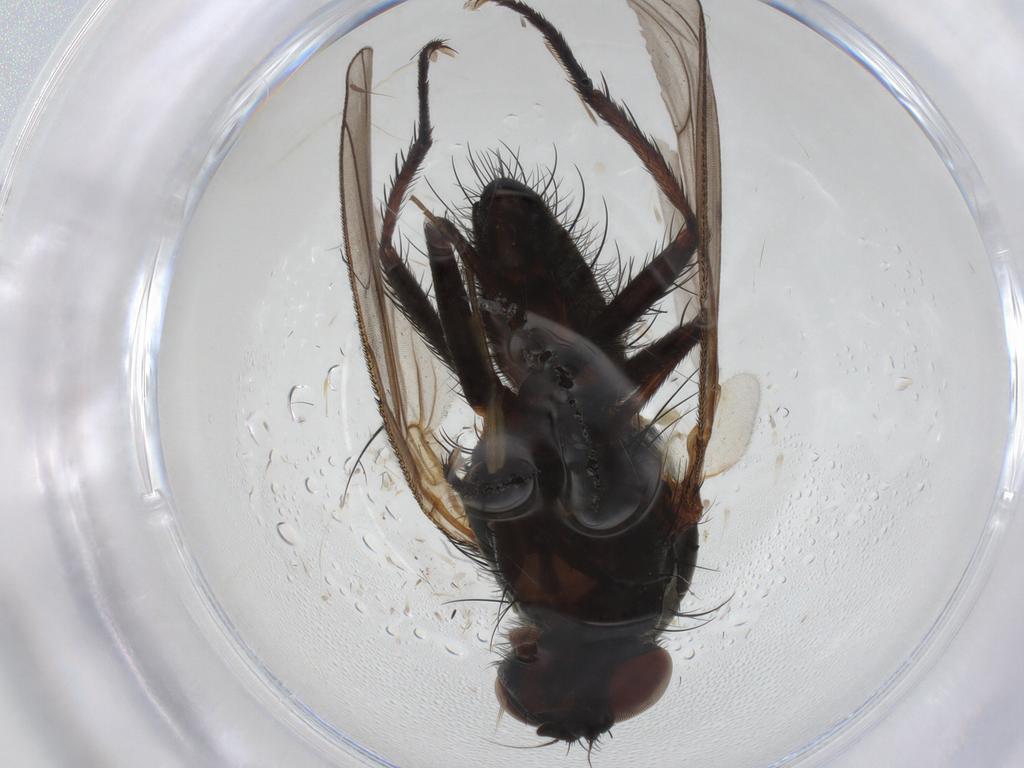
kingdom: Animalia
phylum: Arthropoda
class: Insecta
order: Diptera
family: Anthomyiidae
